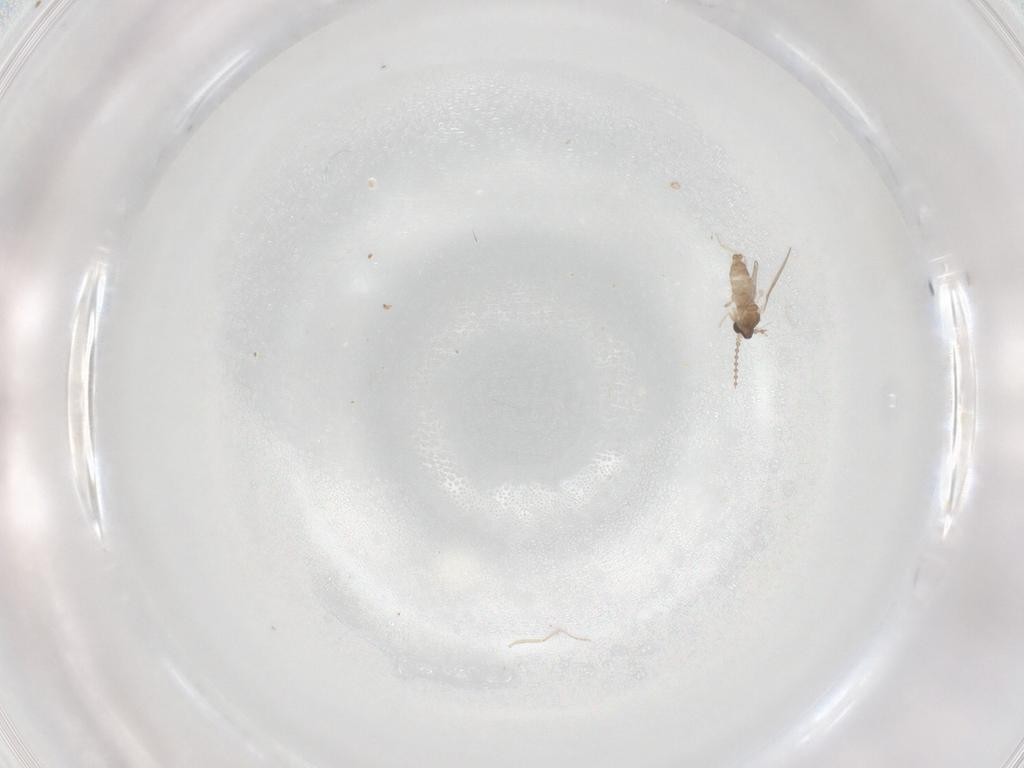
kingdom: Animalia
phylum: Arthropoda
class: Insecta
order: Diptera
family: Cecidomyiidae
